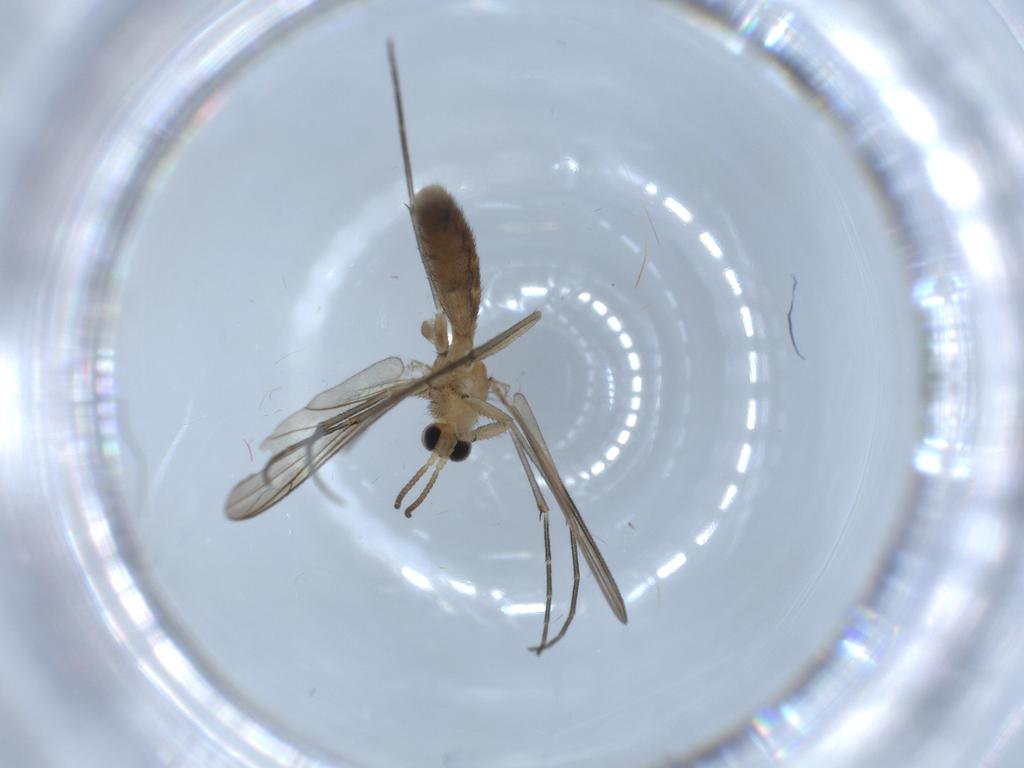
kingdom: Animalia
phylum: Arthropoda
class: Insecta
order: Diptera
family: Keroplatidae
